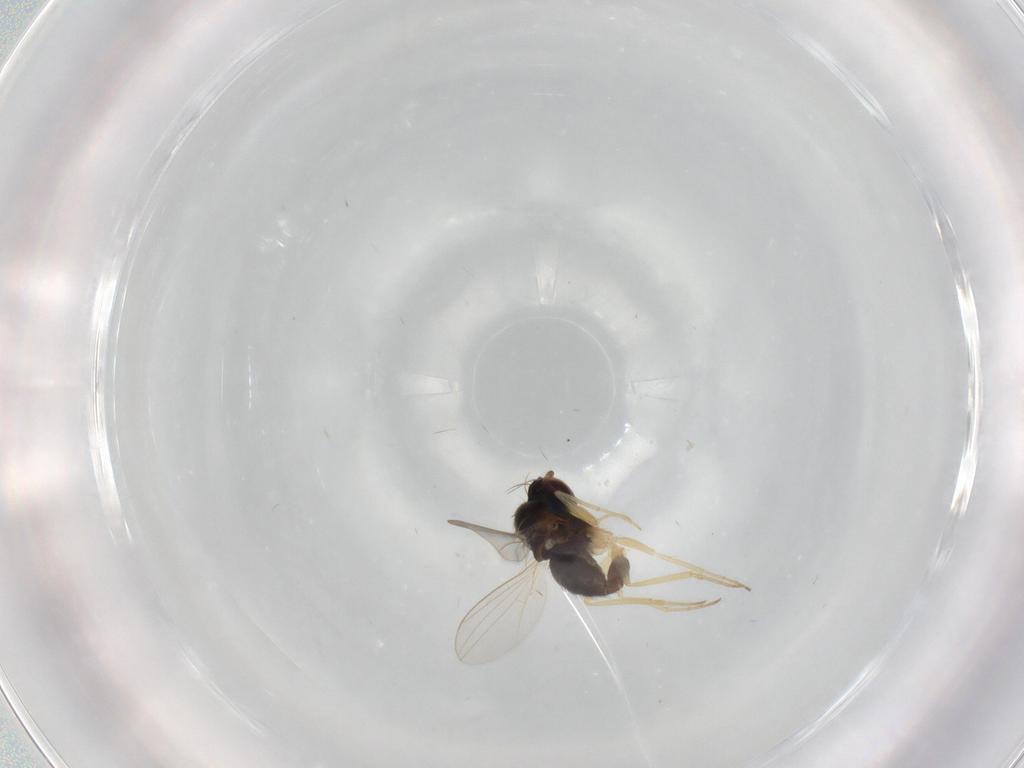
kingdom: Animalia
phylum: Arthropoda
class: Insecta
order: Diptera
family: Dolichopodidae
